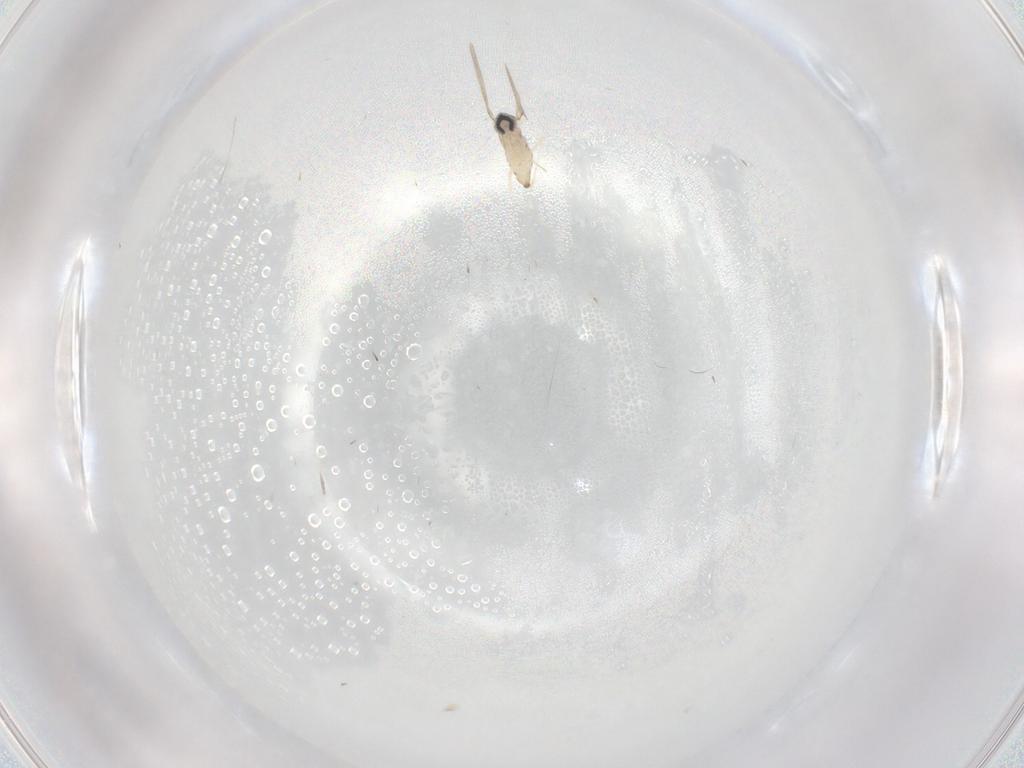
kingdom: Animalia
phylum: Arthropoda
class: Insecta
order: Diptera
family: Cecidomyiidae
